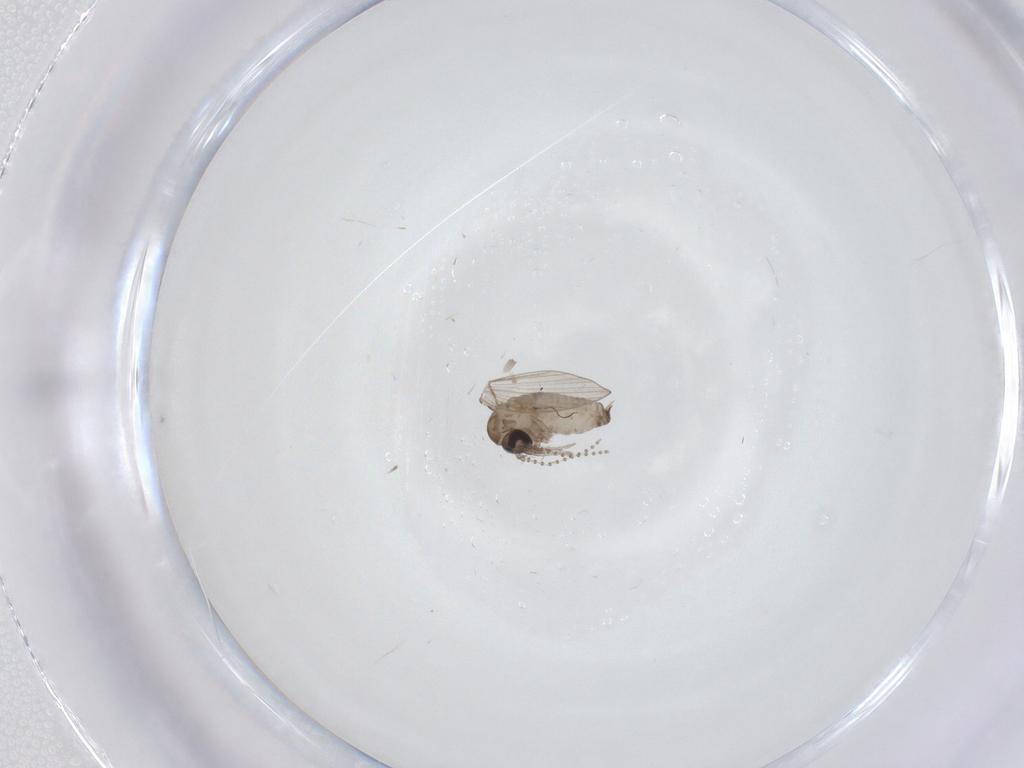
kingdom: Animalia
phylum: Arthropoda
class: Insecta
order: Diptera
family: Psychodidae
